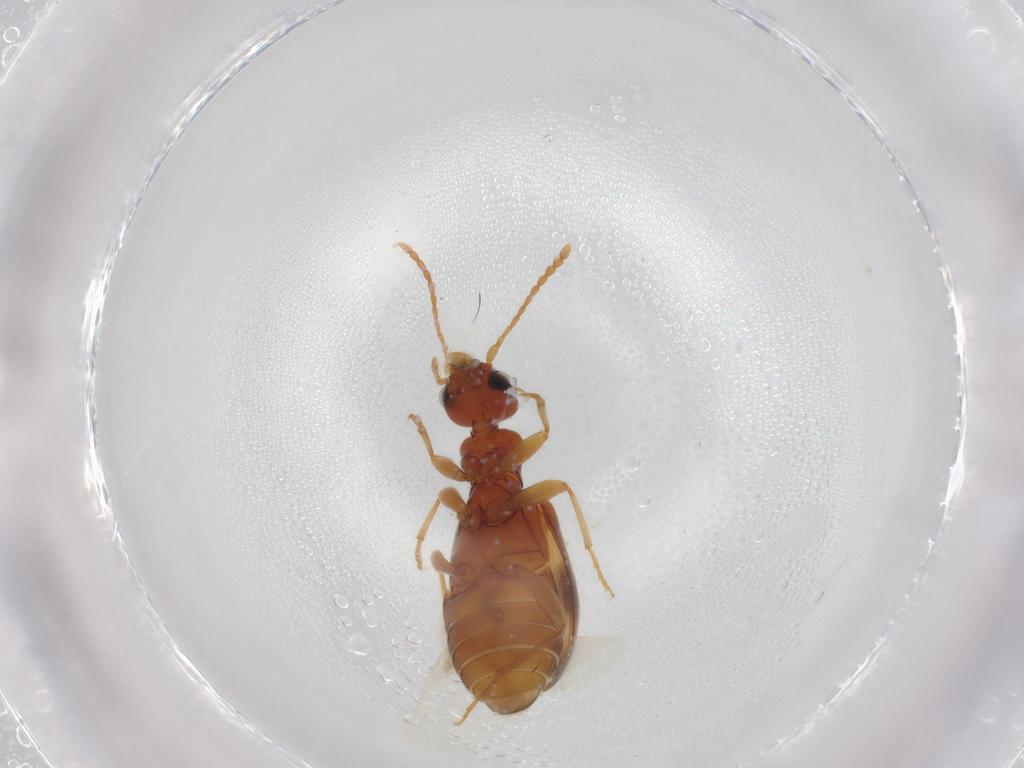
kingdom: Animalia
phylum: Arthropoda
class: Insecta
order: Coleoptera
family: Anthicidae
